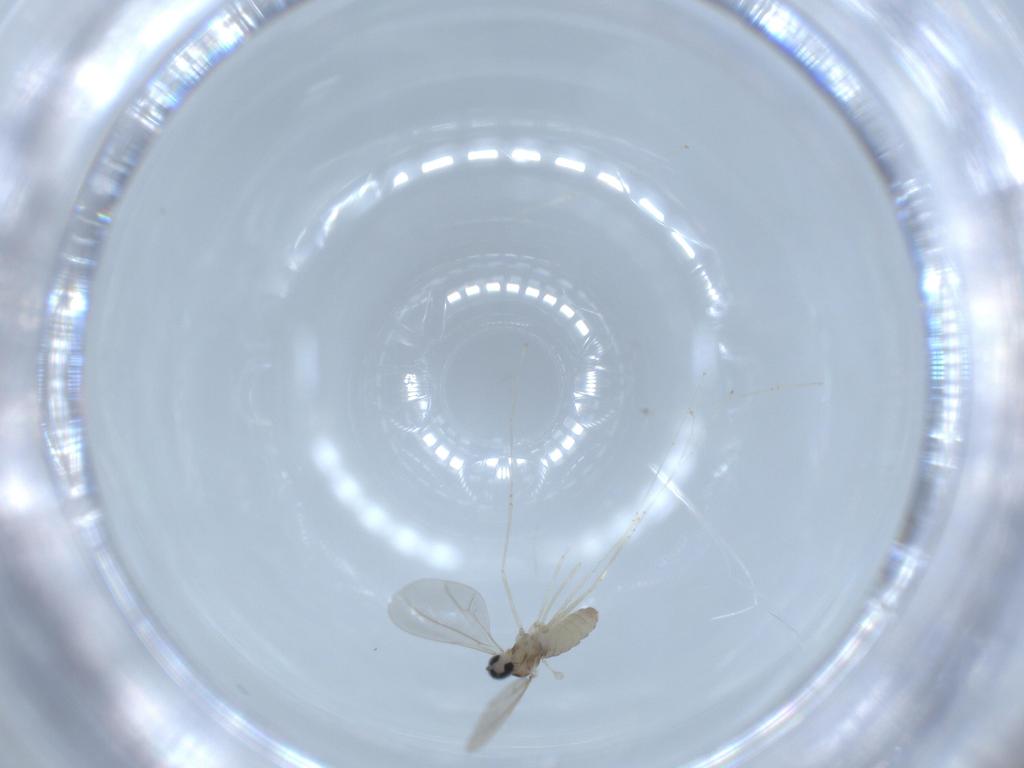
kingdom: Animalia
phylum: Arthropoda
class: Insecta
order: Diptera
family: Cecidomyiidae
